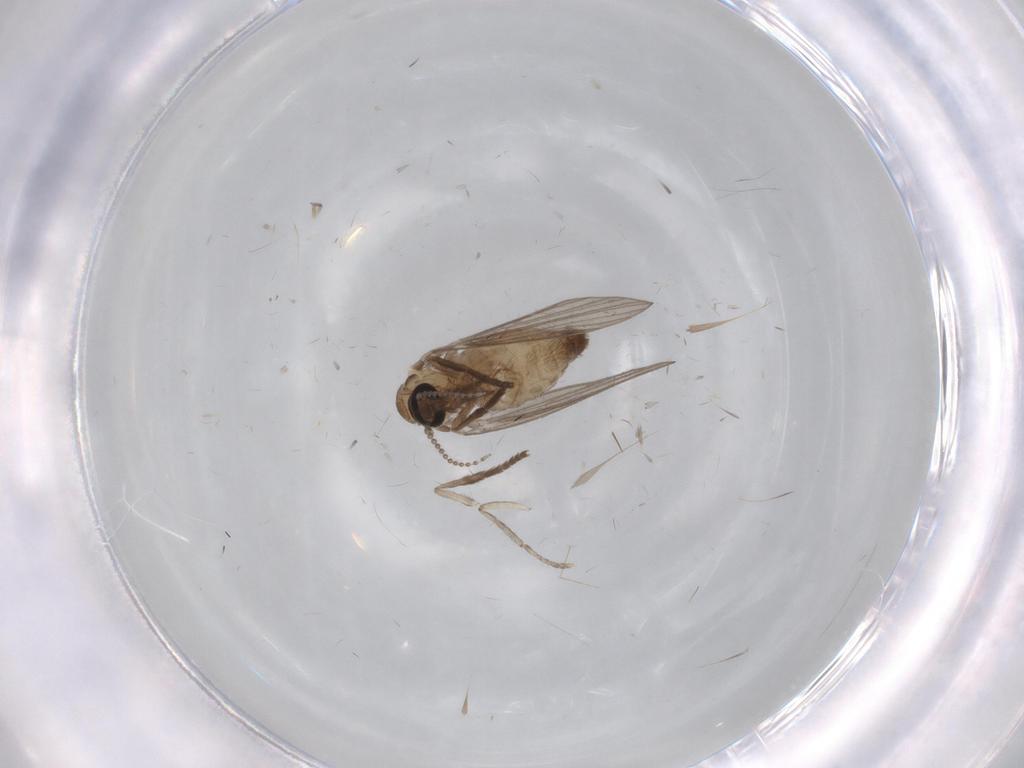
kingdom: Animalia
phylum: Arthropoda
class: Insecta
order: Diptera
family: Psychodidae
